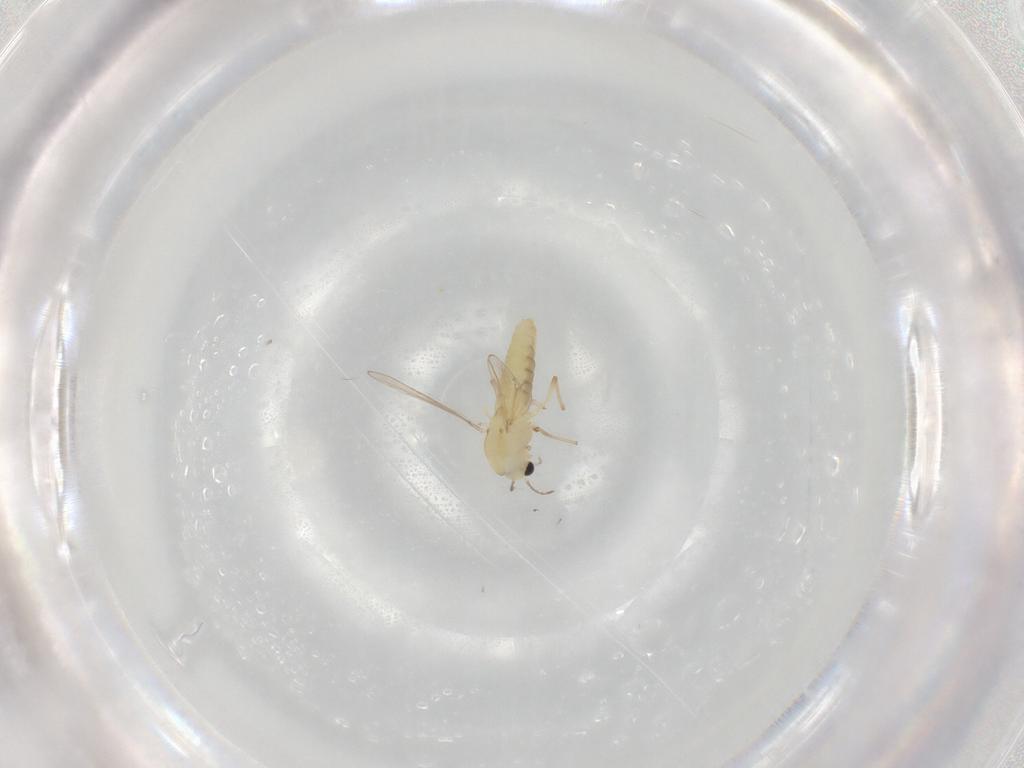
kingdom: Animalia
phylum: Arthropoda
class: Insecta
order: Diptera
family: Chironomidae
